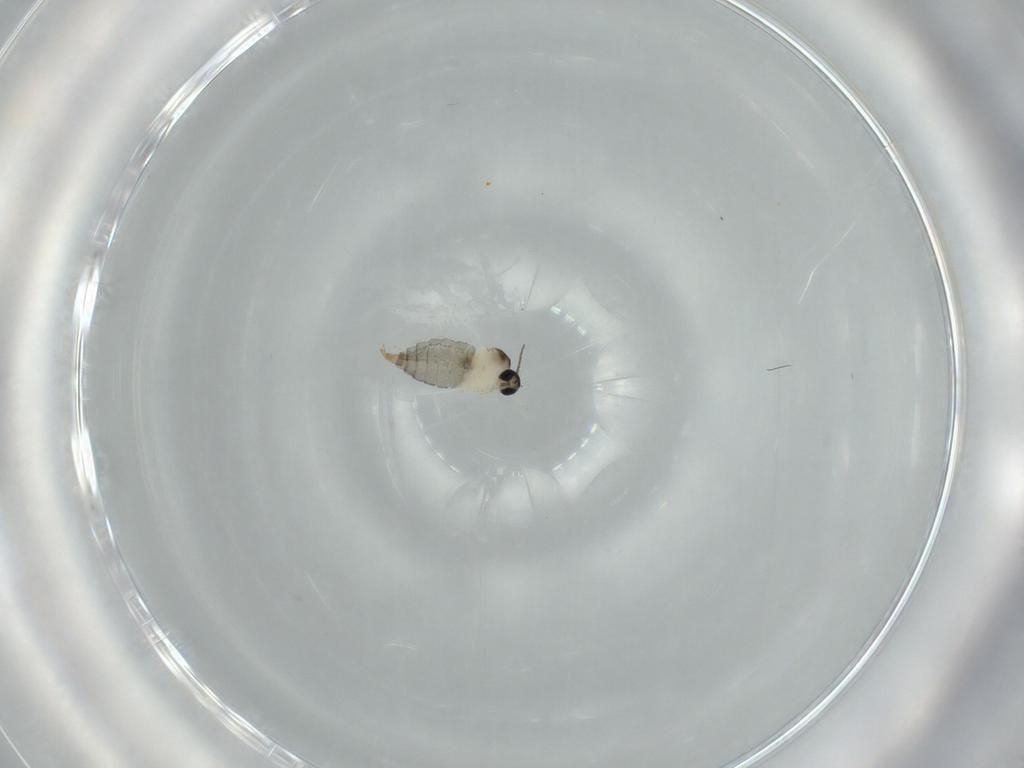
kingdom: Animalia
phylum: Arthropoda
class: Insecta
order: Diptera
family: Cecidomyiidae
